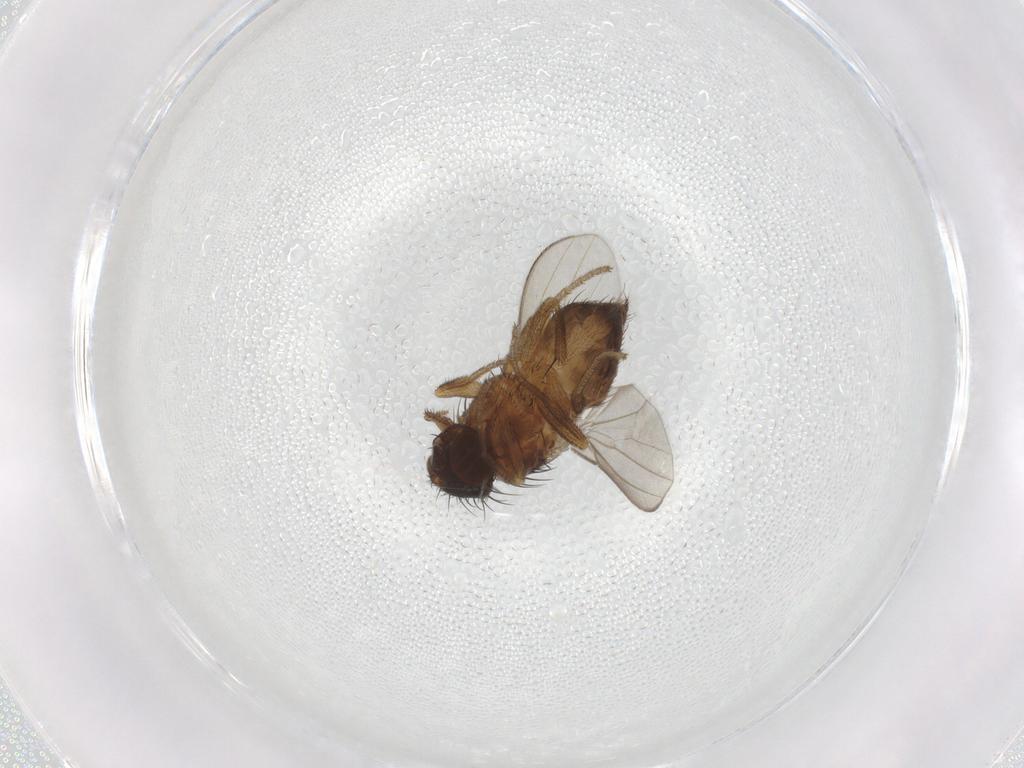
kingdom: Animalia
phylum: Arthropoda
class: Insecta
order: Diptera
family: Milichiidae
